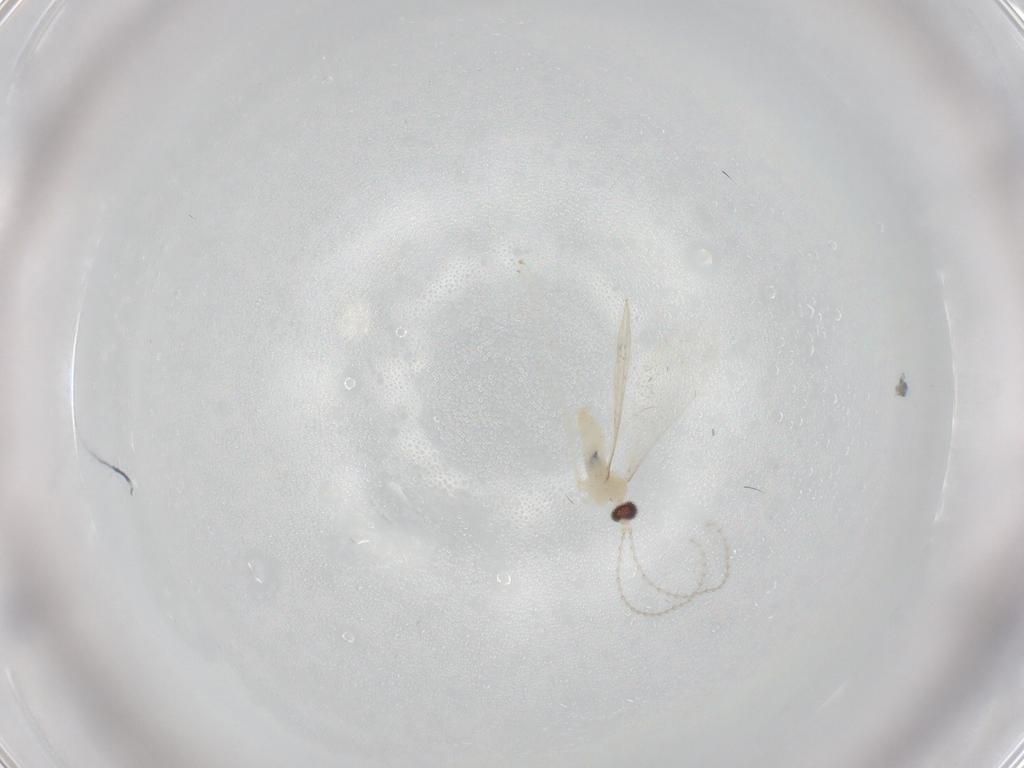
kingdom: Animalia
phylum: Arthropoda
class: Insecta
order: Diptera
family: Cecidomyiidae
